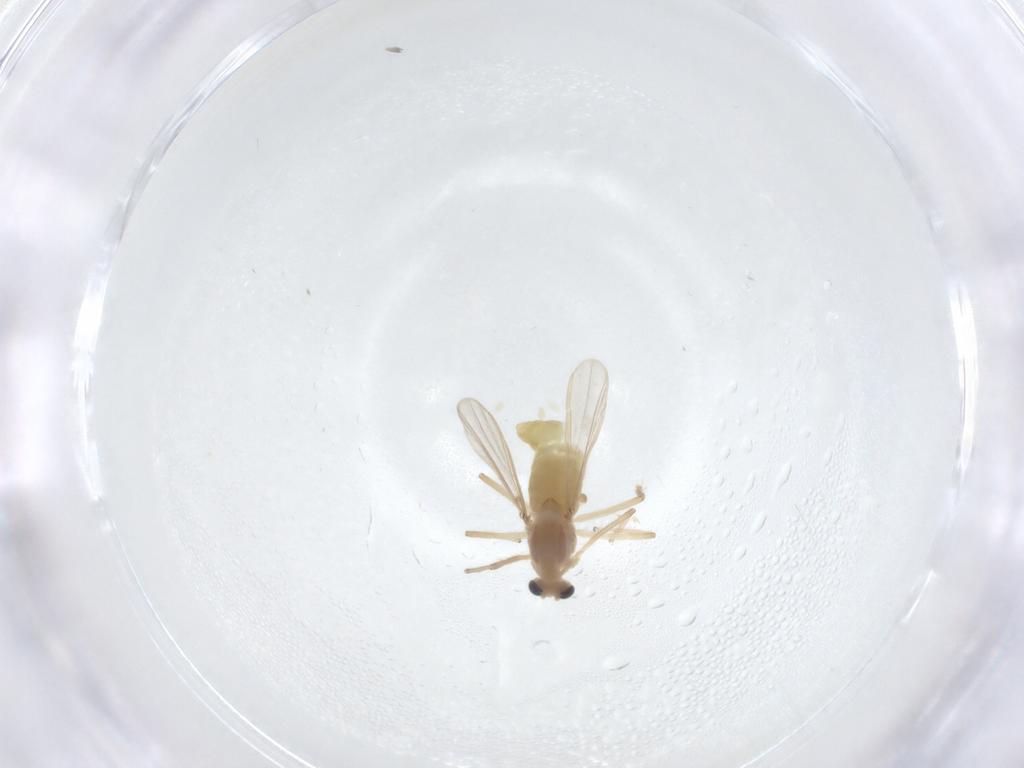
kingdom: Animalia
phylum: Arthropoda
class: Insecta
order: Diptera
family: Chironomidae
